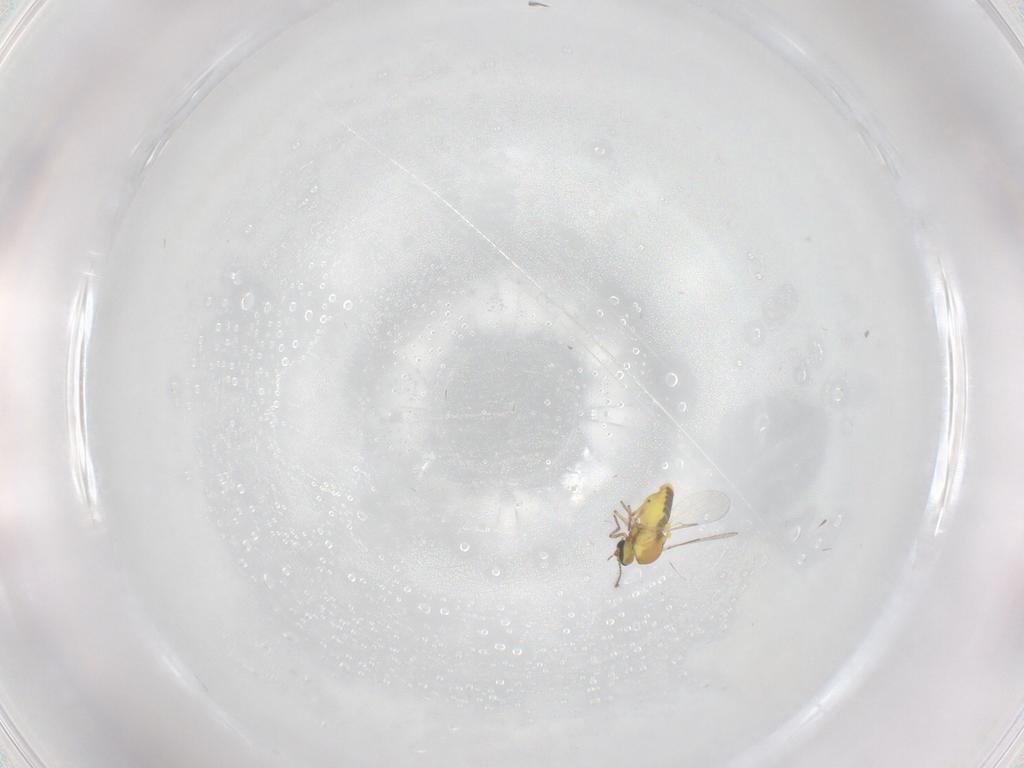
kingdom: Animalia
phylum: Arthropoda
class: Insecta
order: Diptera
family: Ceratopogonidae
